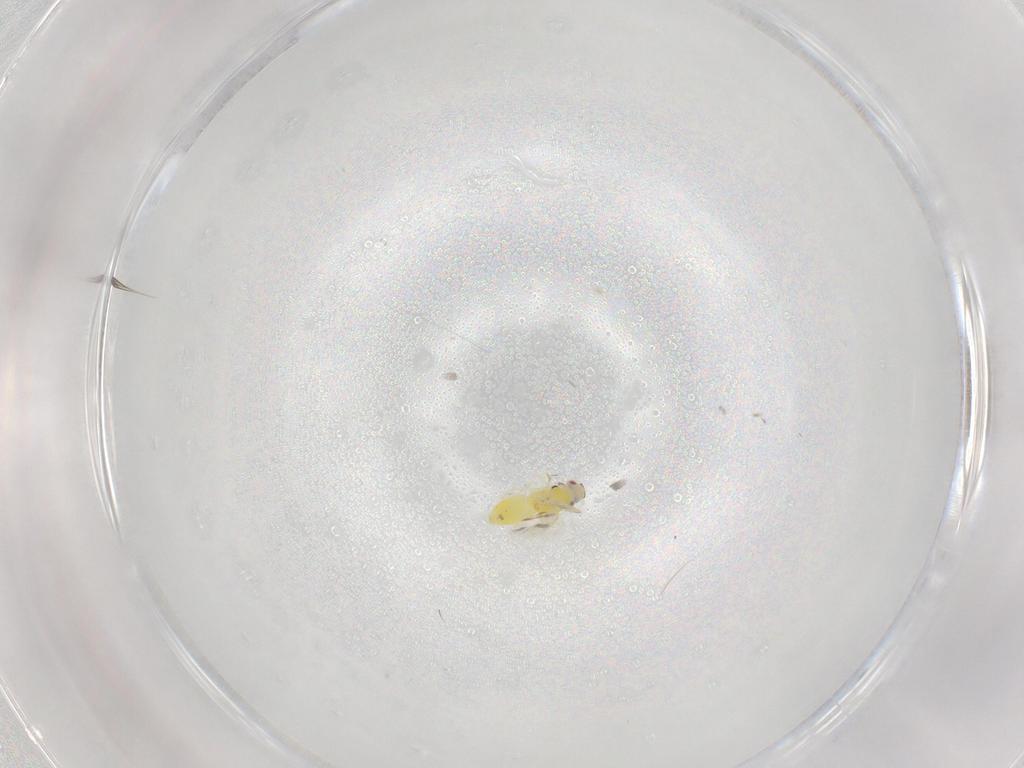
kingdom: Animalia
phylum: Arthropoda
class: Insecta
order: Hemiptera
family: Aleyrodidae
